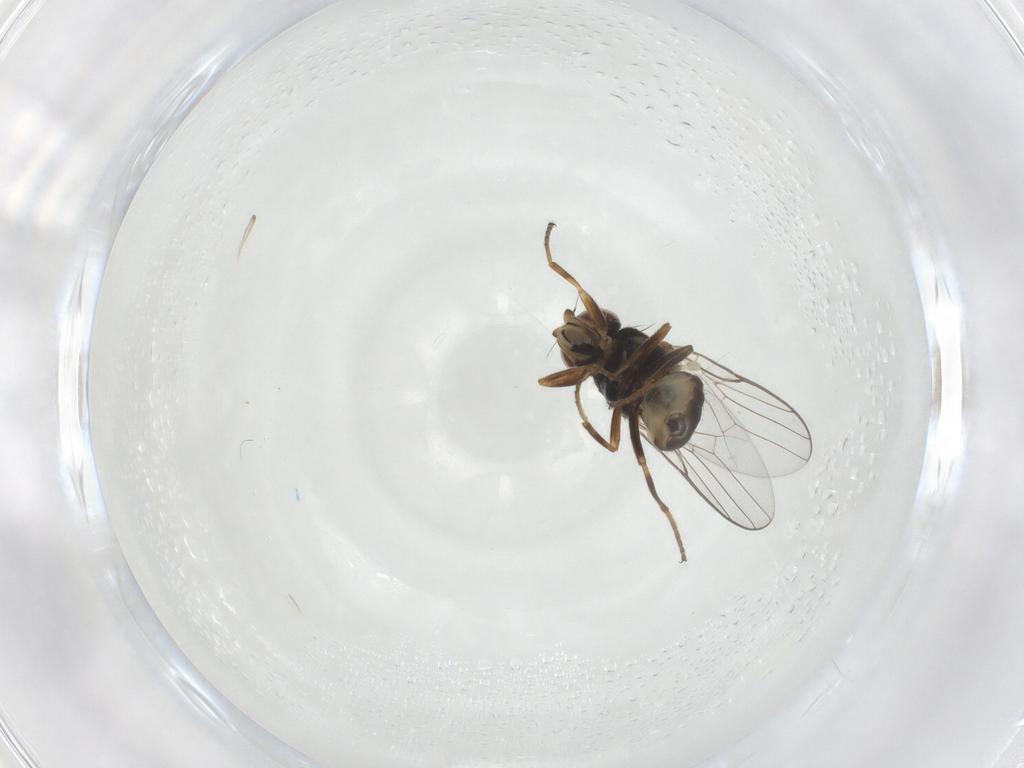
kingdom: Animalia
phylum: Arthropoda
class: Insecta
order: Diptera
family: Chloropidae
